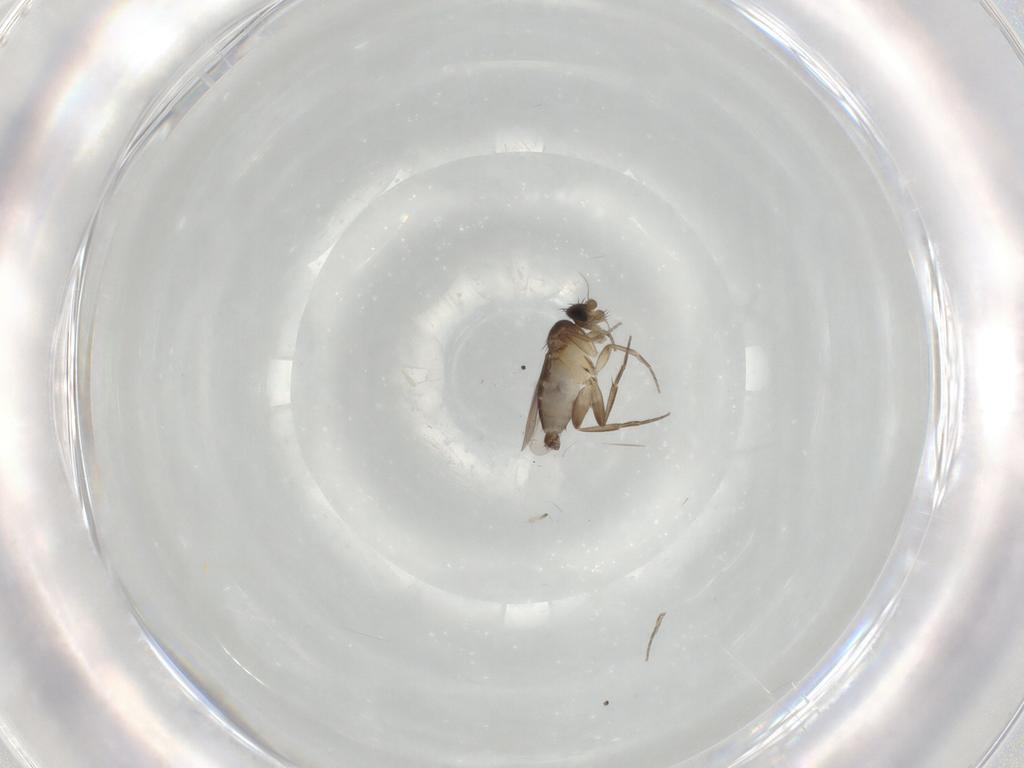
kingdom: Animalia
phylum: Arthropoda
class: Insecta
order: Diptera
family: Phoridae
